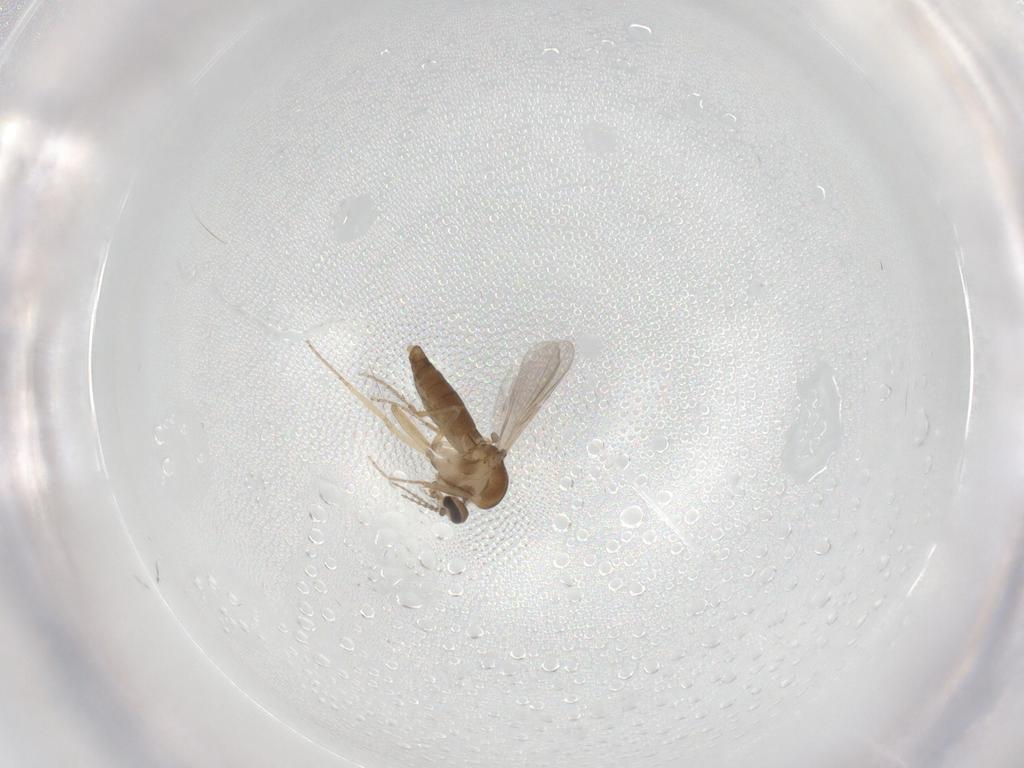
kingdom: Animalia
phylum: Arthropoda
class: Insecta
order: Diptera
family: Ceratopogonidae
